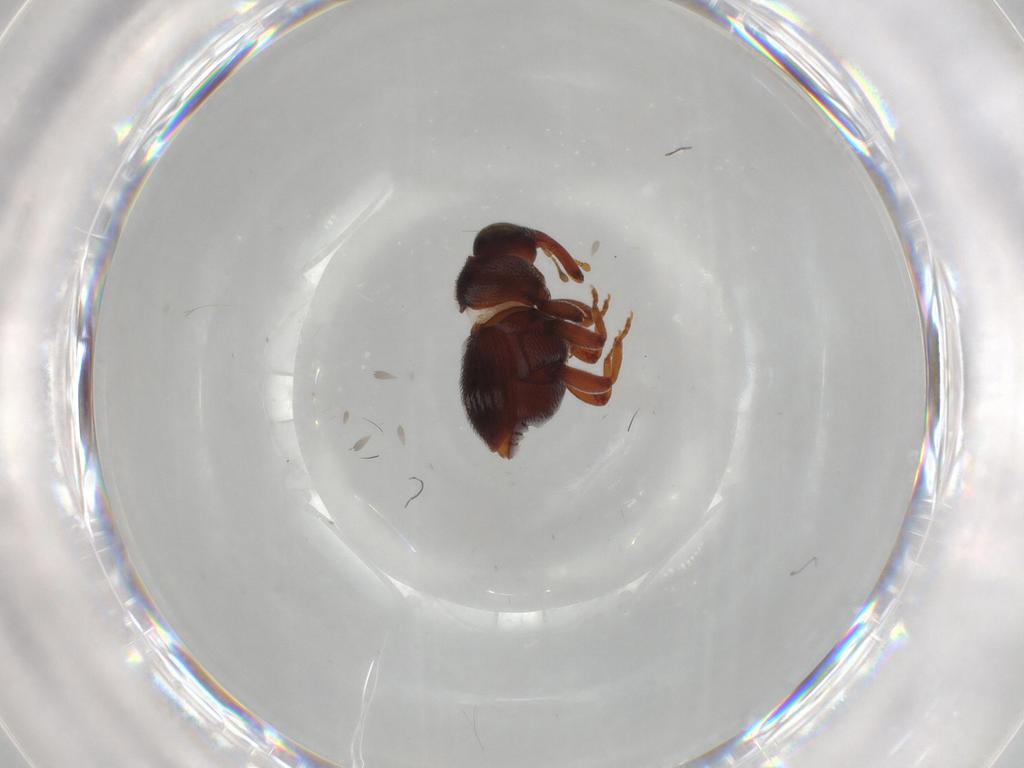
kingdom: Animalia
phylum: Arthropoda
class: Insecta
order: Coleoptera
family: Curculionidae
